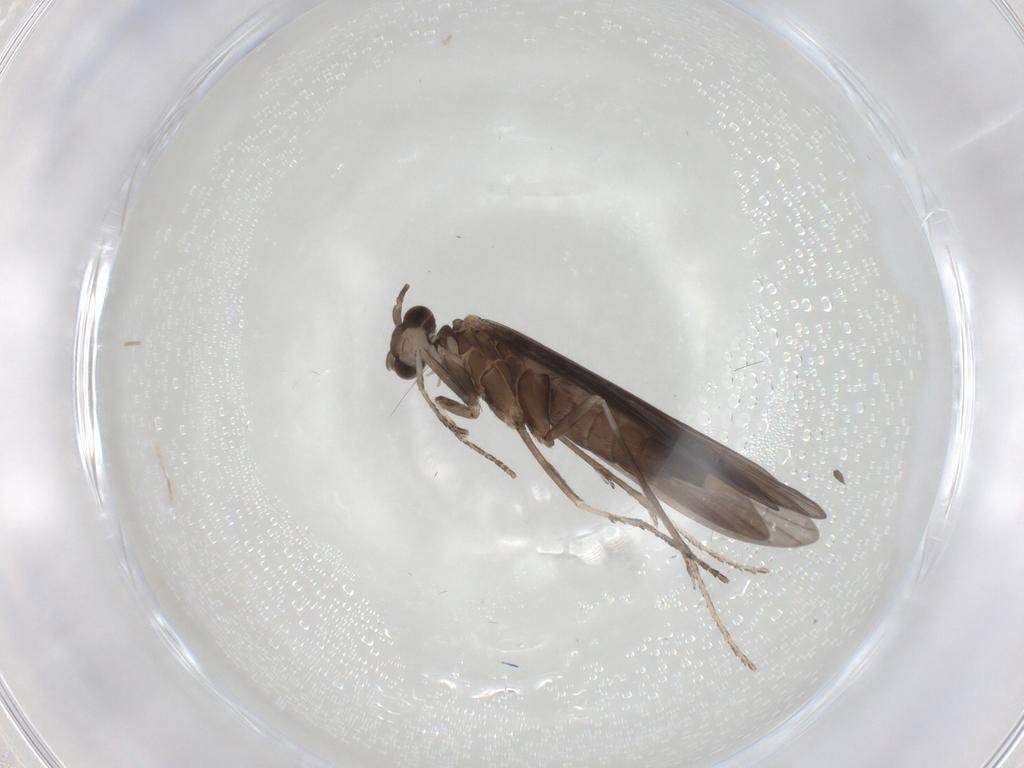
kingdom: Animalia
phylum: Arthropoda
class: Insecta
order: Trichoptera
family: Xiphocentronidae
